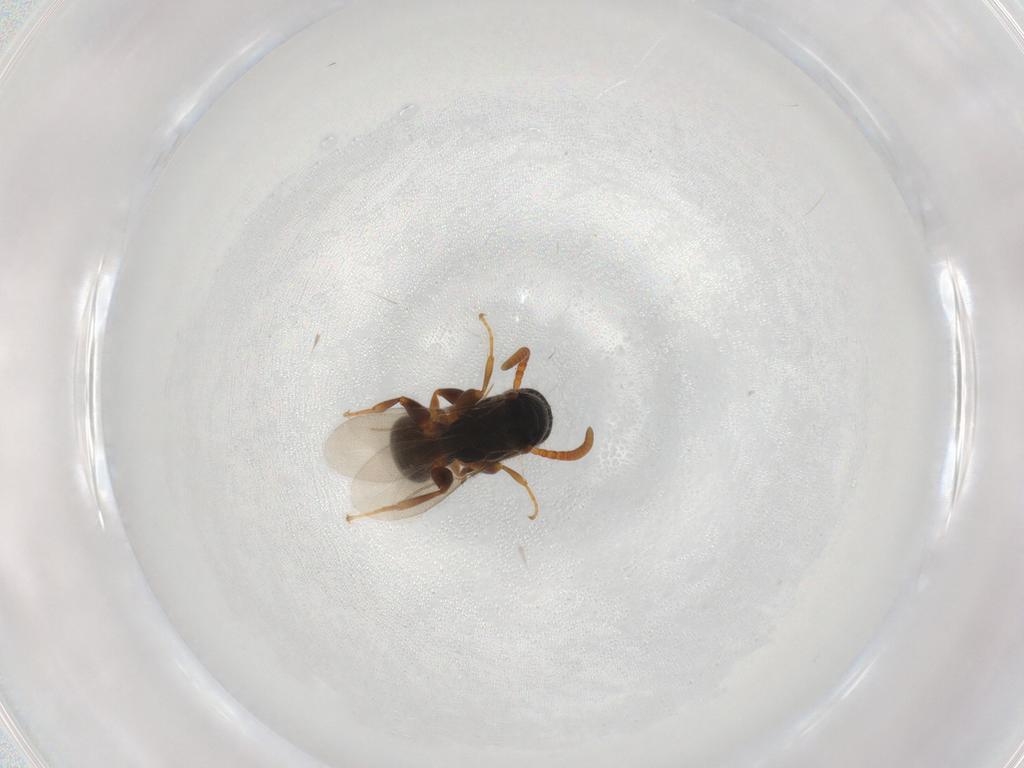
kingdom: Animalia
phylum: Arthropoda
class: Insecta
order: Hymenoptera
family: Bethylidae
